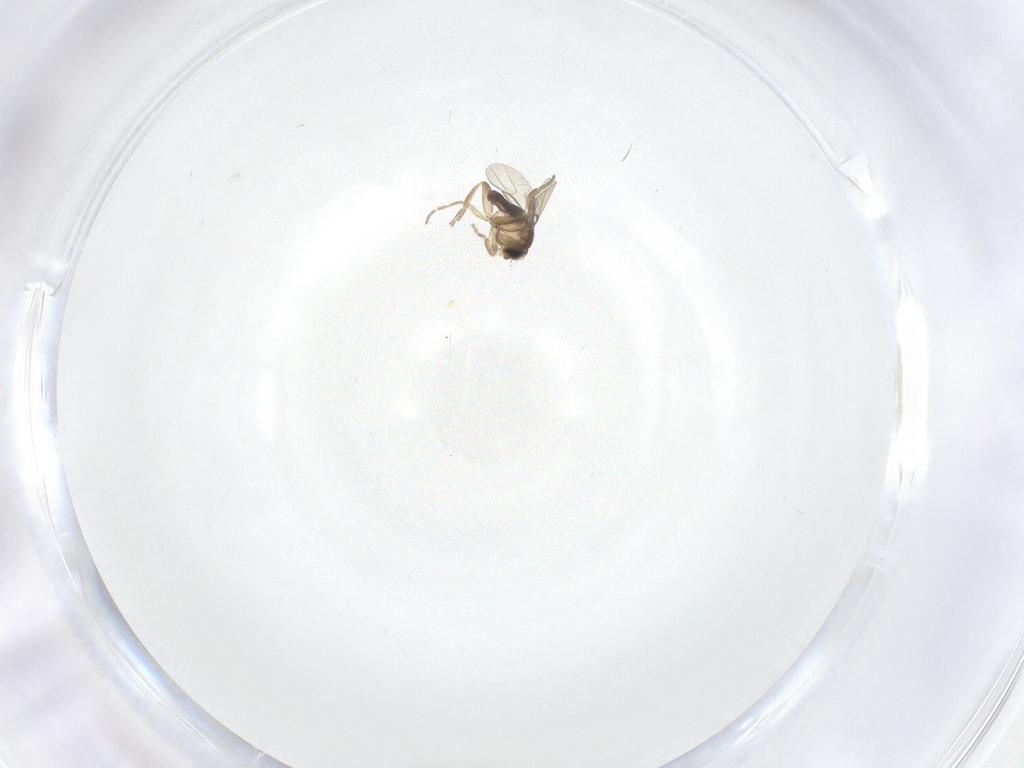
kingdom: Animalia
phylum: Arthropoda
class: Insecta
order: Diptera
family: Phoridae
